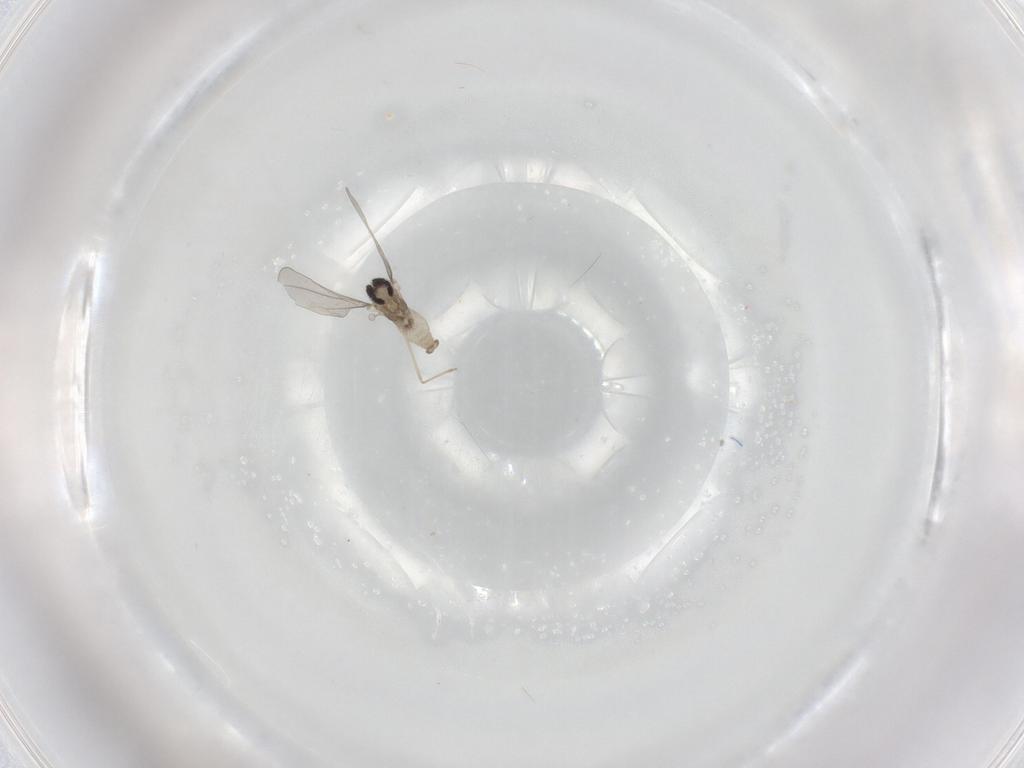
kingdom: Animalia
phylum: Arthropoda
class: Insecta
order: Diptera
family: Cecidomyiidae
